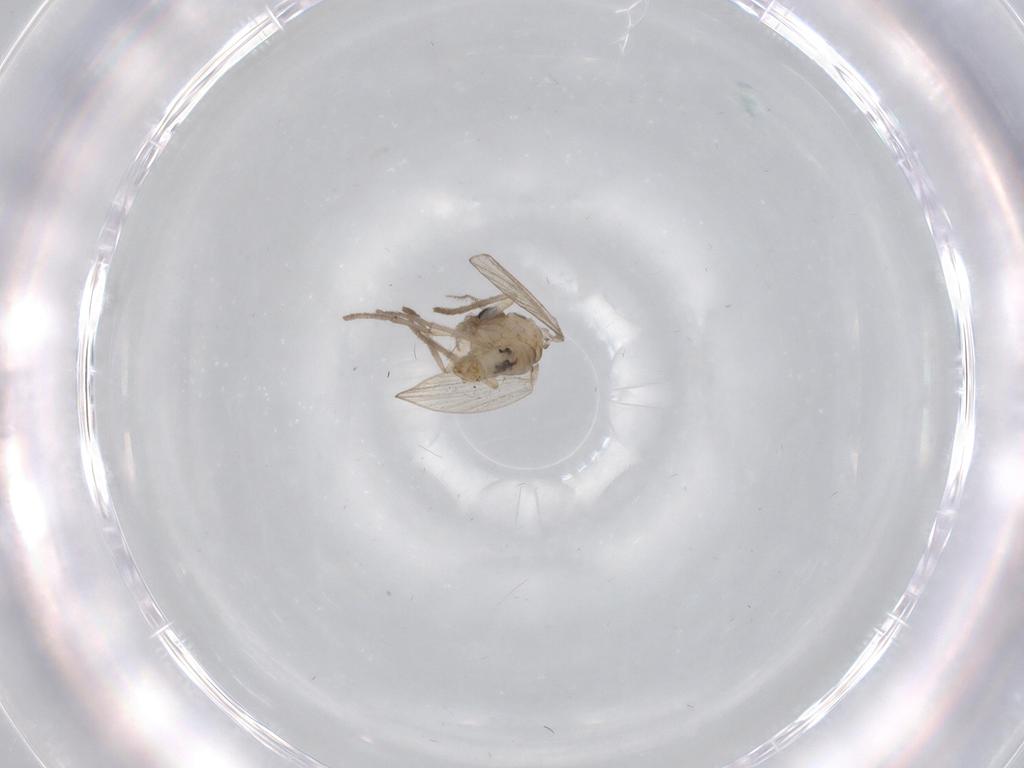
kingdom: Animalia
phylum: Arthropoda
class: Insecta
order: Diptera
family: Psychodidae
